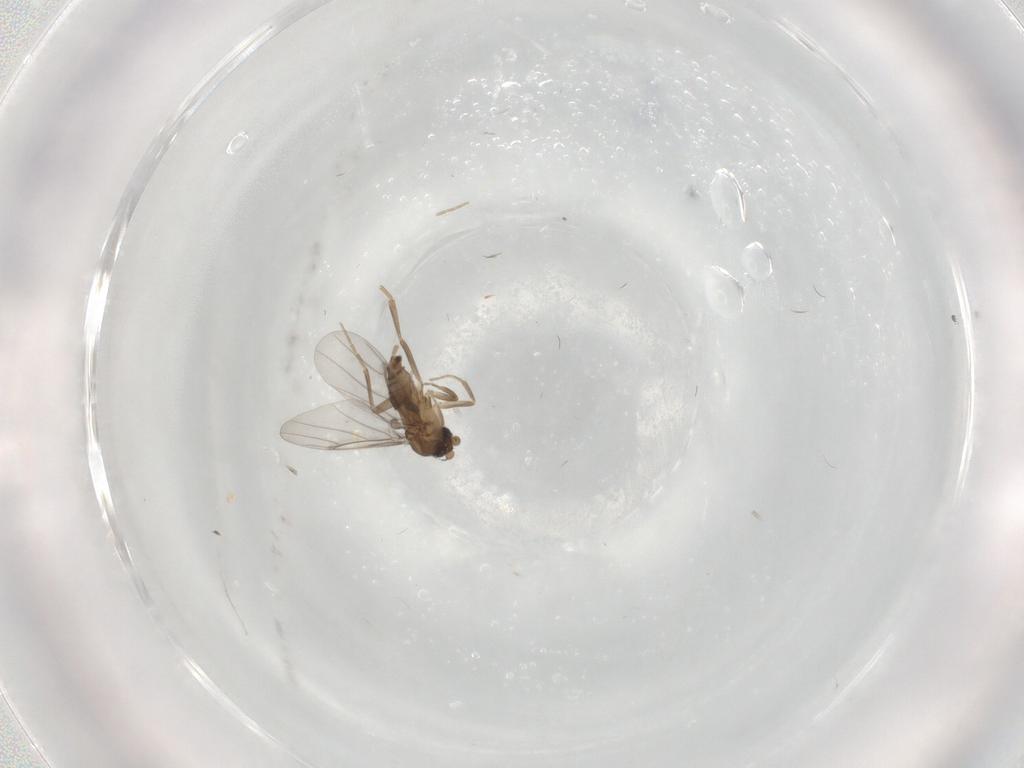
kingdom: Animalia
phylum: Arthropoda
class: Insecta
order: Diptera
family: Phoridae
